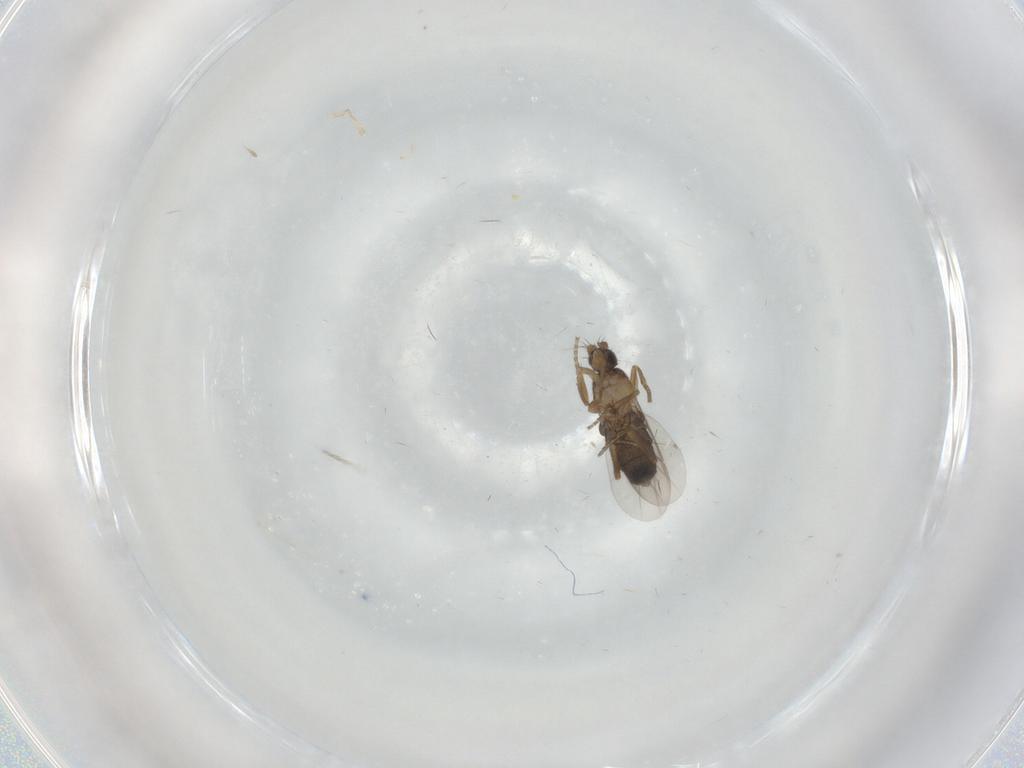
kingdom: Animalia
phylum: Arthropoda
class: Insecta
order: Diptera
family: Phoridae
